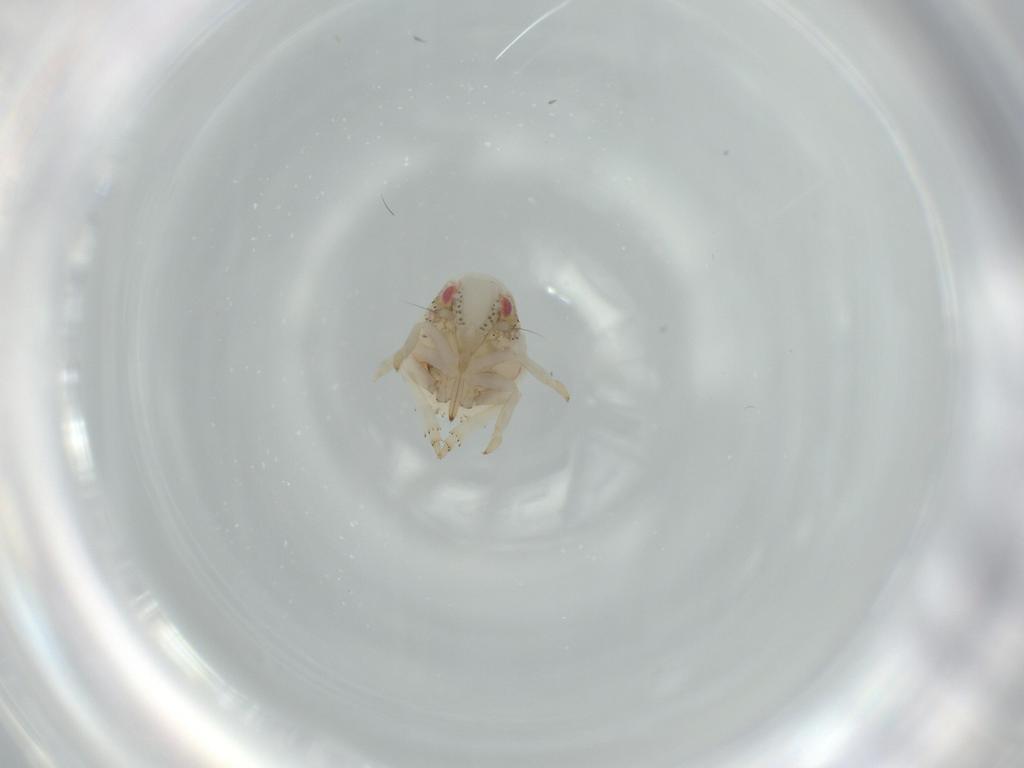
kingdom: Animalia
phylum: Arthropoda
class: Insecta
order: Hemiptera
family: Acanaloniidae
